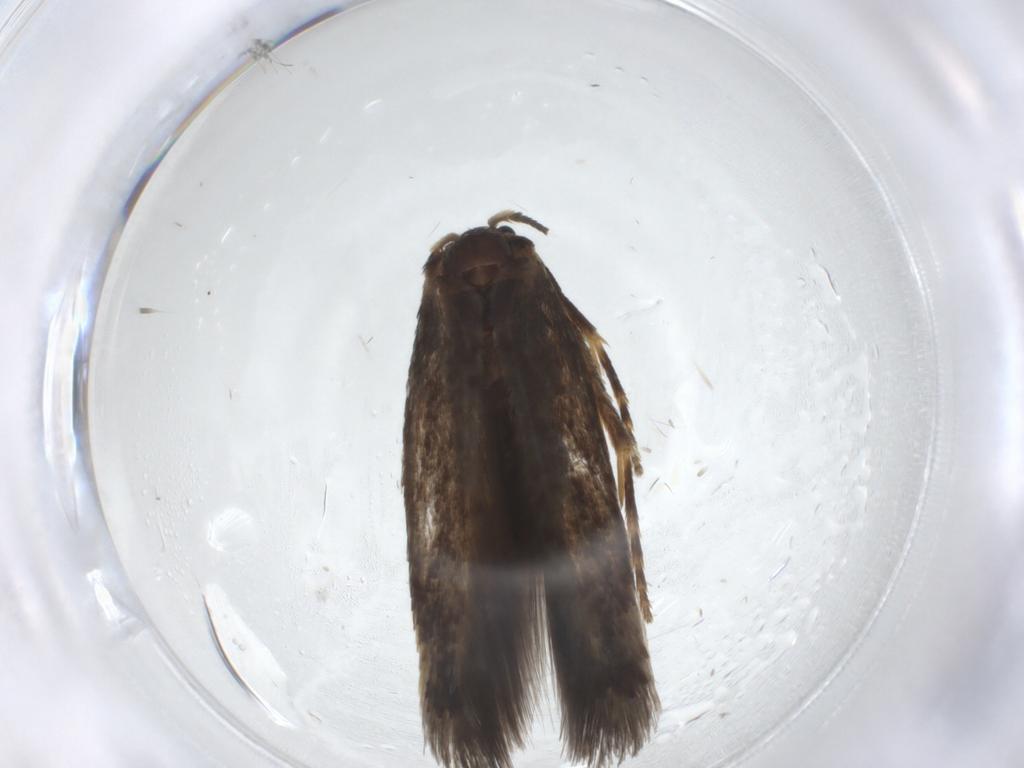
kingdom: Animalia
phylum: Arthropoda
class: Insecta
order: Lepidoptera
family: Nepticulidae
